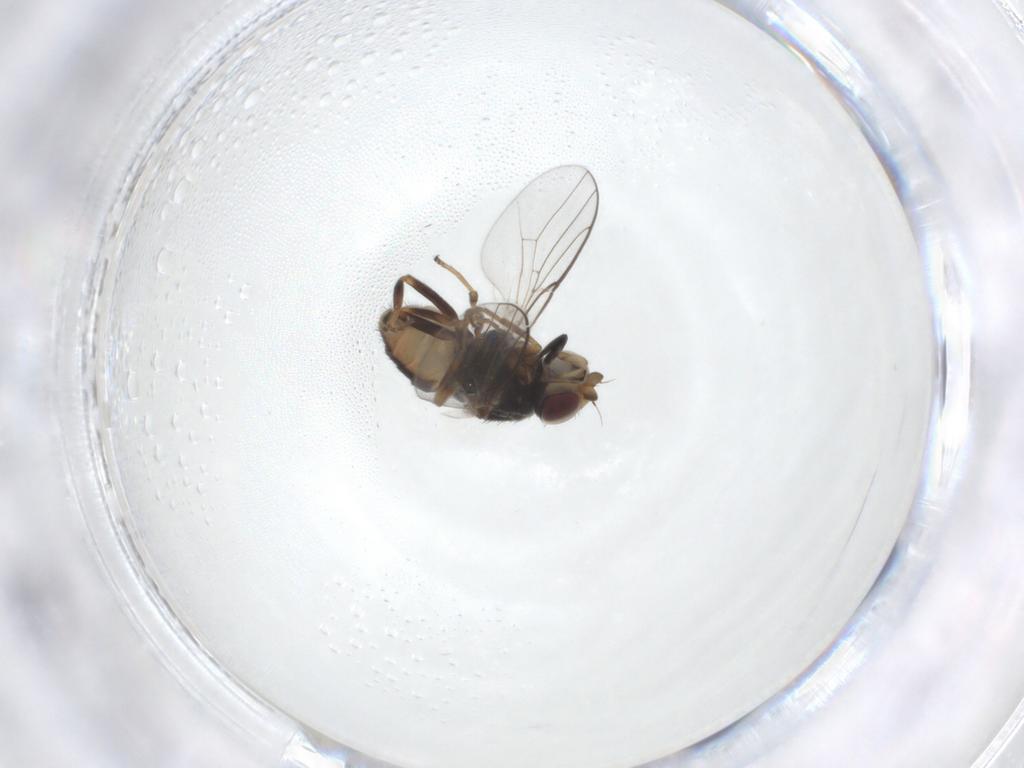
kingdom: Animalia
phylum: Arthropoda
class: Insecta
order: Diptera
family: Chloropidae
